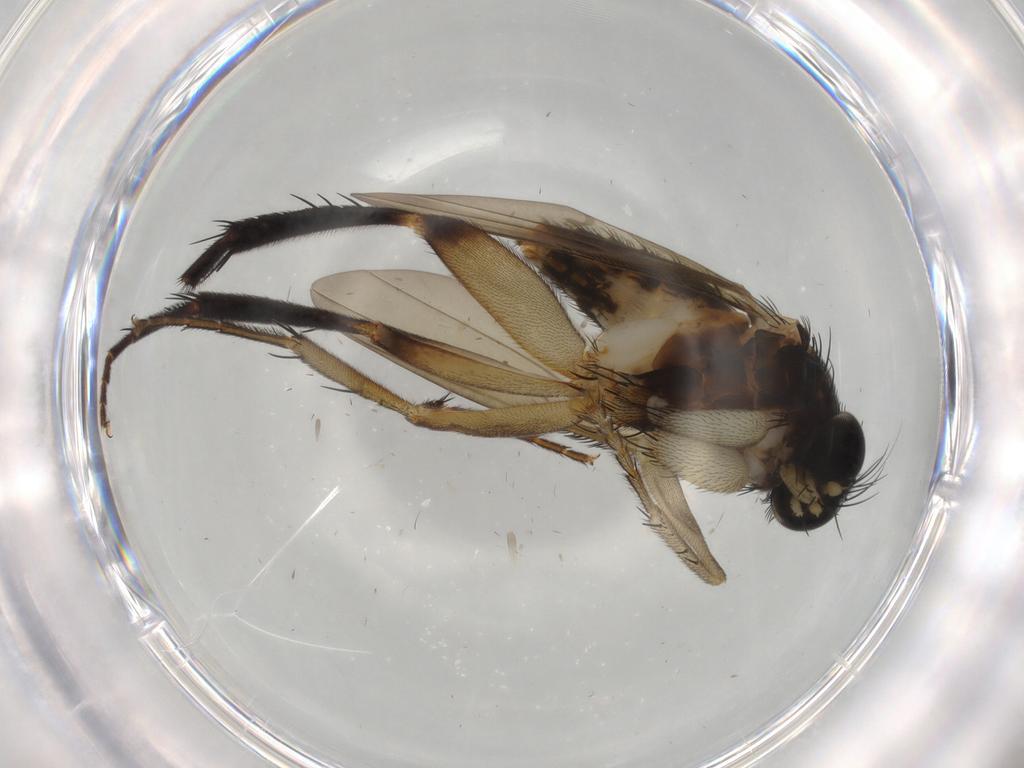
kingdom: Animalia
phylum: Arthropoda
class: Insecta
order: Diptera
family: Phoridae
